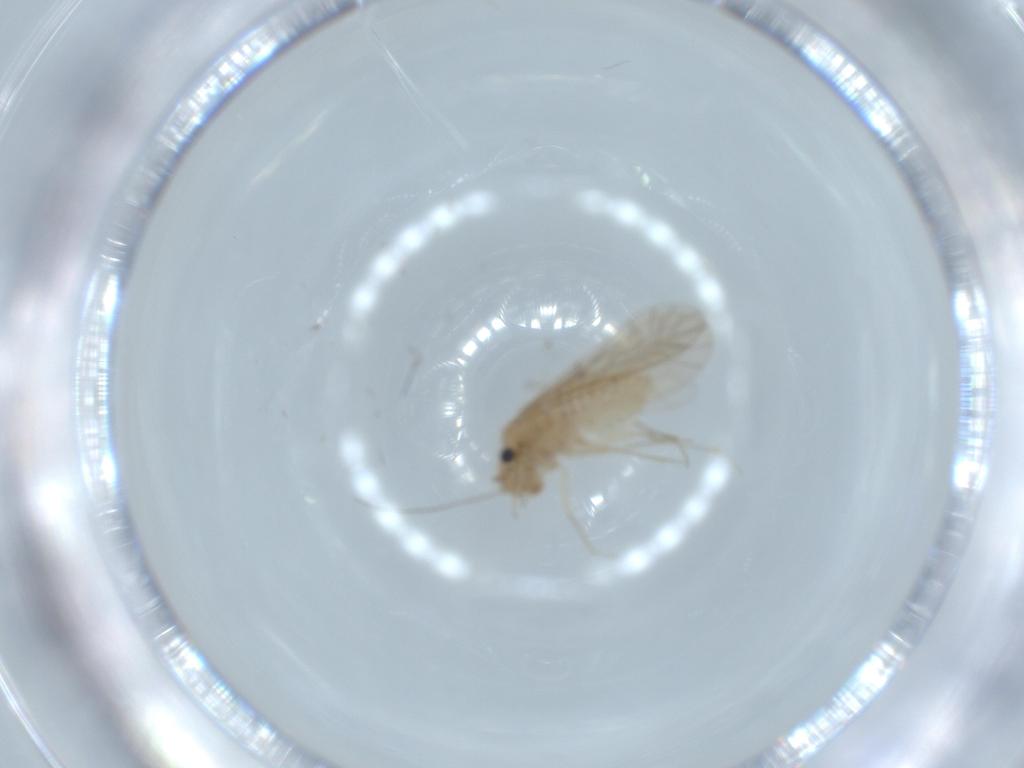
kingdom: Animalia
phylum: Arthropoda
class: Insecta
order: Psocodea
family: Lachesillidae
